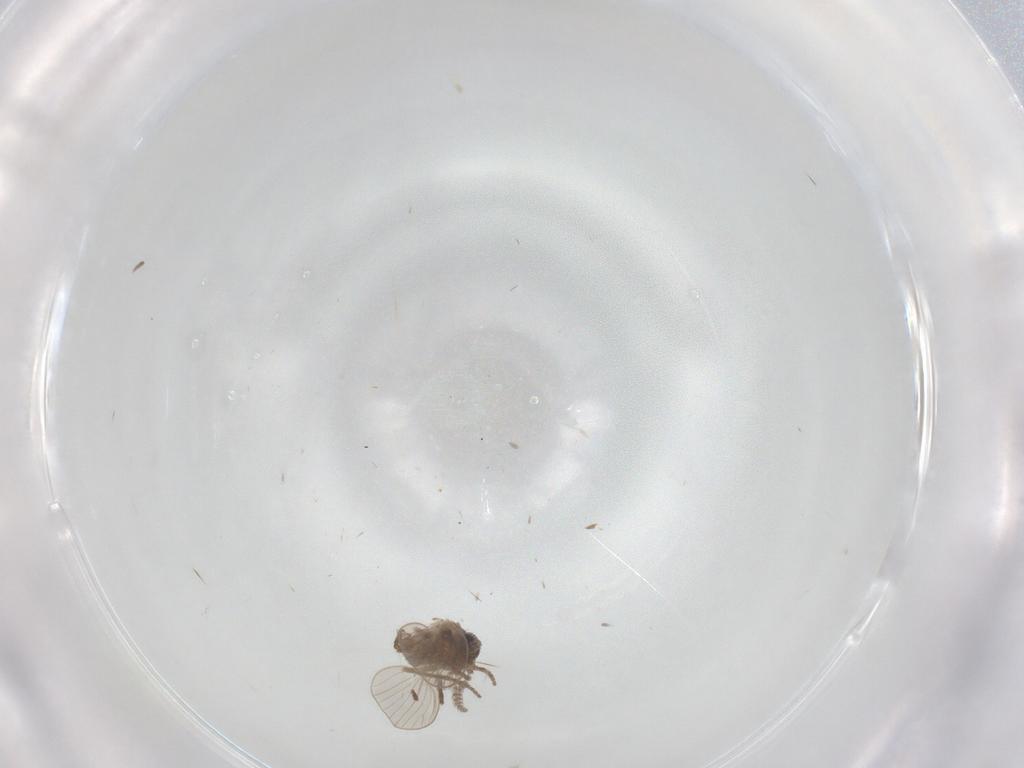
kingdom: Animalia
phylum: Arthropoda
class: Insecta
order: Diptera
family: Psychodidae
